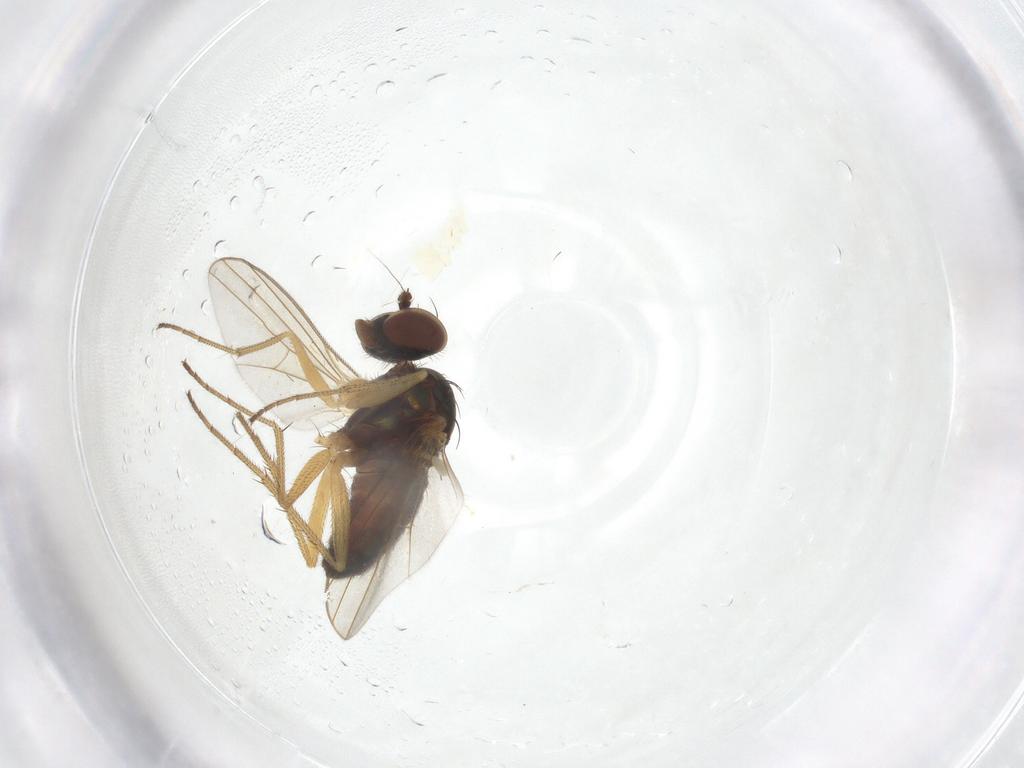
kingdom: Animalia
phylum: Arthropoda
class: Insecta
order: Diptera
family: Dolichopodidae
